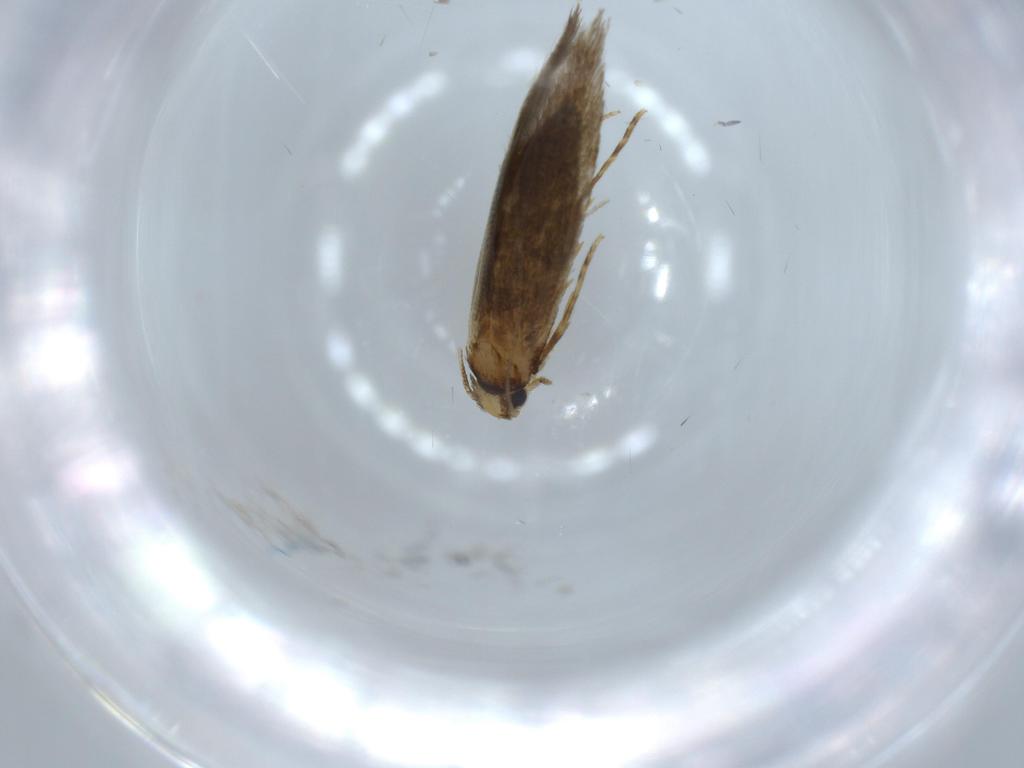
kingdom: Animalia
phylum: Arthropoda
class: Insecta
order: Lepidoptera
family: Tineidae
